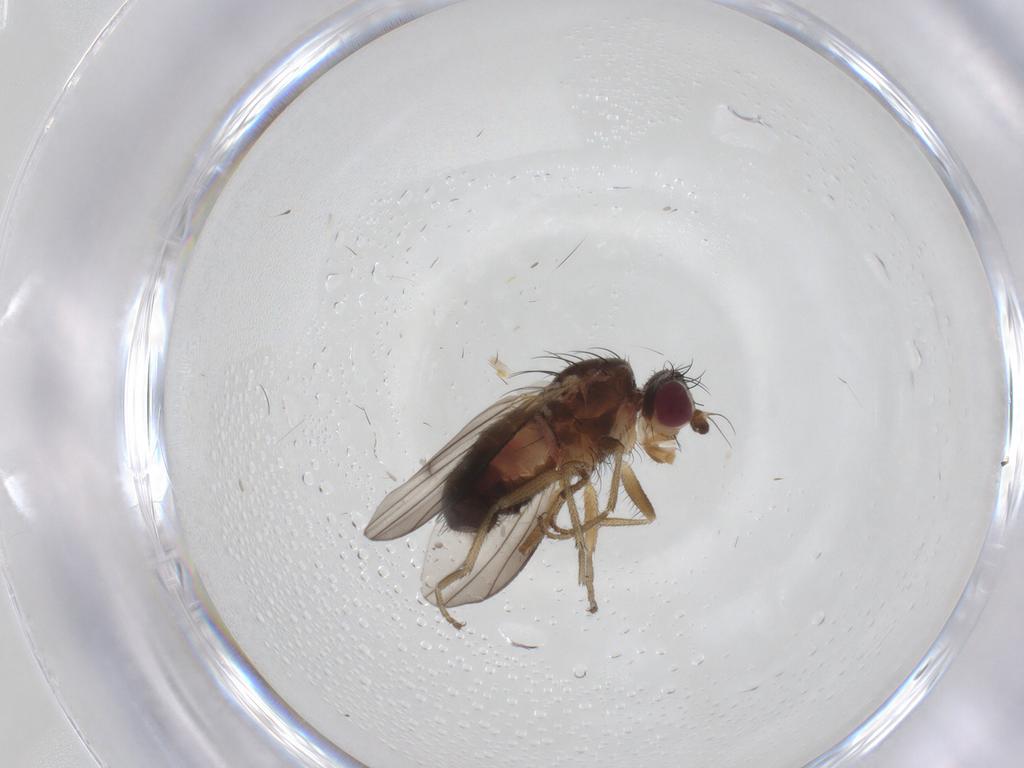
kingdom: Animalia
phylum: Arthropoda
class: Insecta
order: Diptera
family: Heleomyzidae
